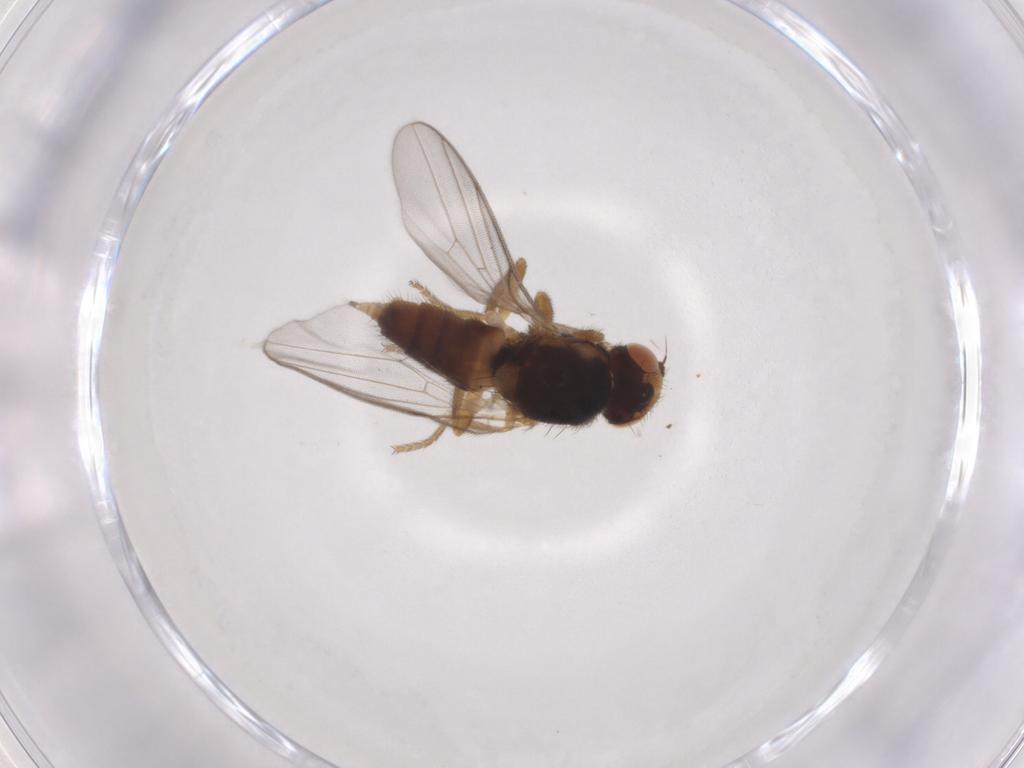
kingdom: Animalia
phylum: Arthropoda
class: Insecta
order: Diptera
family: Chloropidae
